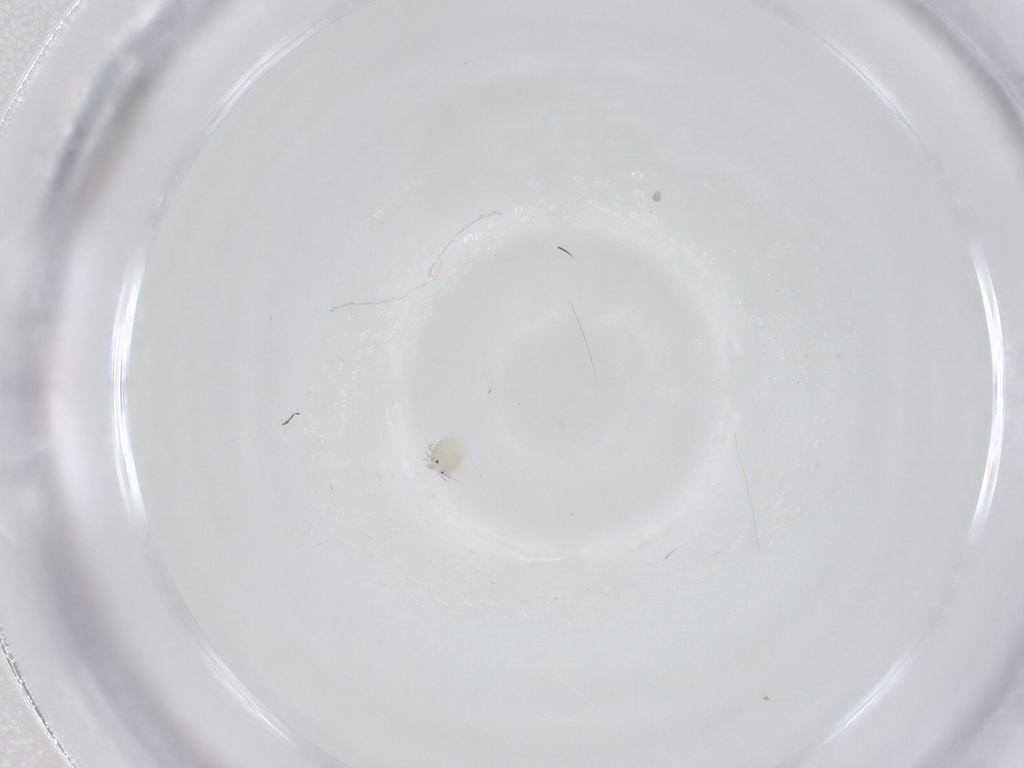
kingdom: Animalia
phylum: Arthropoda
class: Arachnida
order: Trombidiformes
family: Arrenuridae
